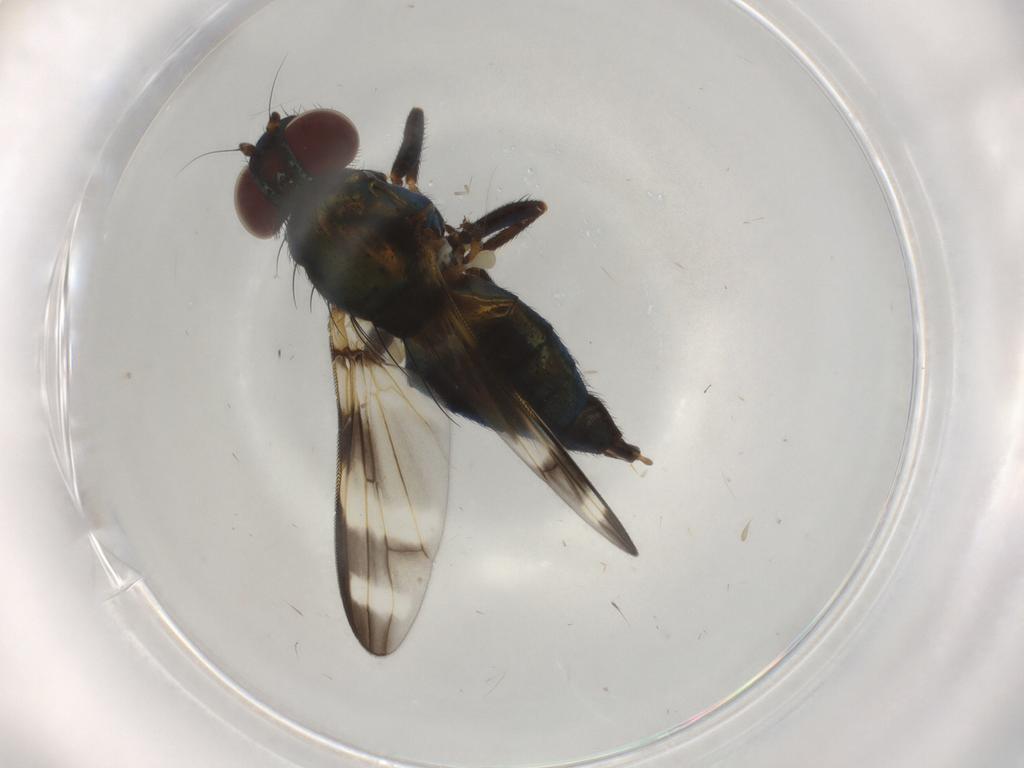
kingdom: Animalia
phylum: Arthropoda
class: Insecta
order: Diptera
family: Ulidiidae
